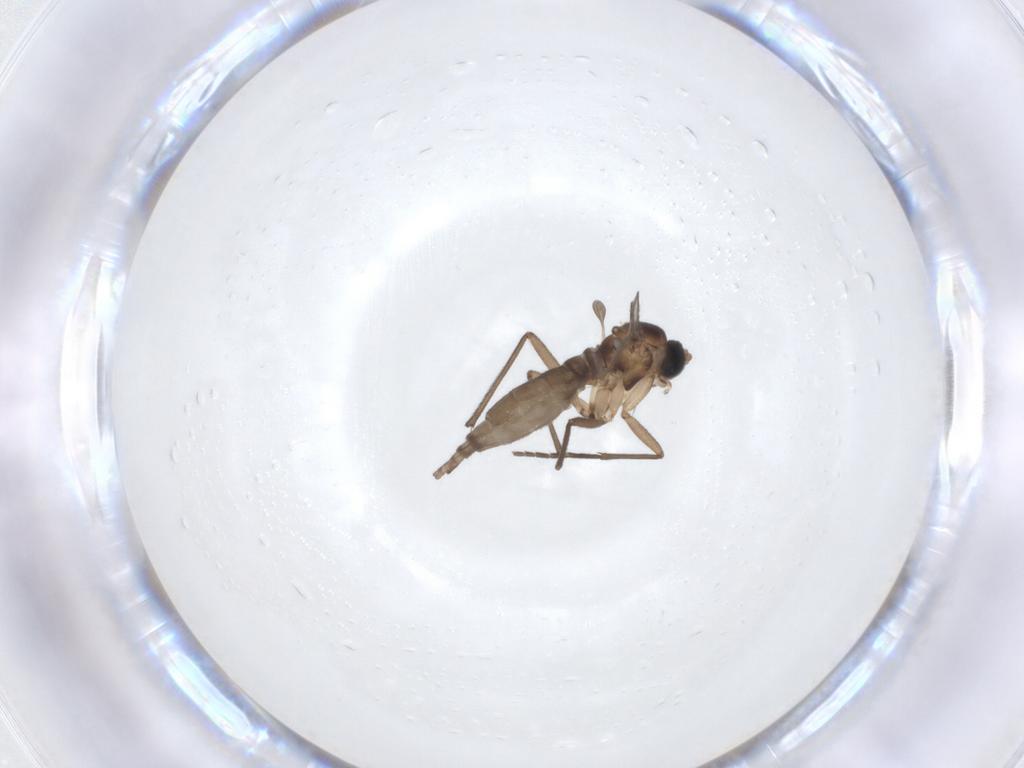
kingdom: Animalia
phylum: Arthropoda
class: Insecta
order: Diptera
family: Sciaridae
